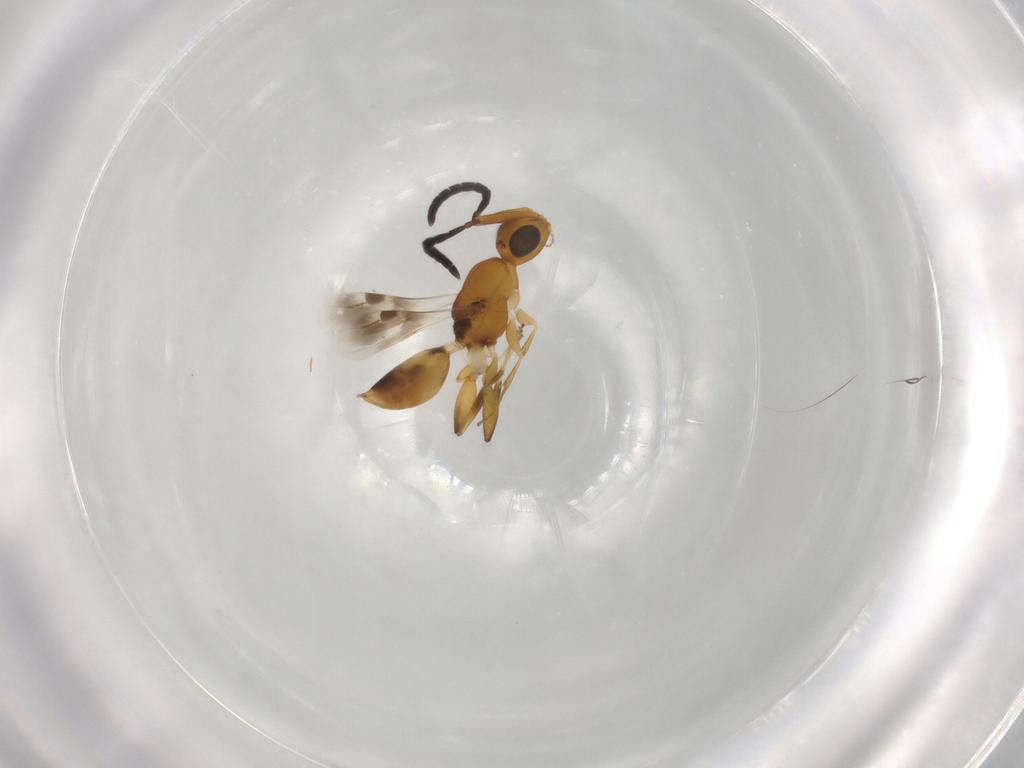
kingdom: Animalia
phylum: Arthropoda
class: Insecta
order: Hymenoptera
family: Megaspilidae
